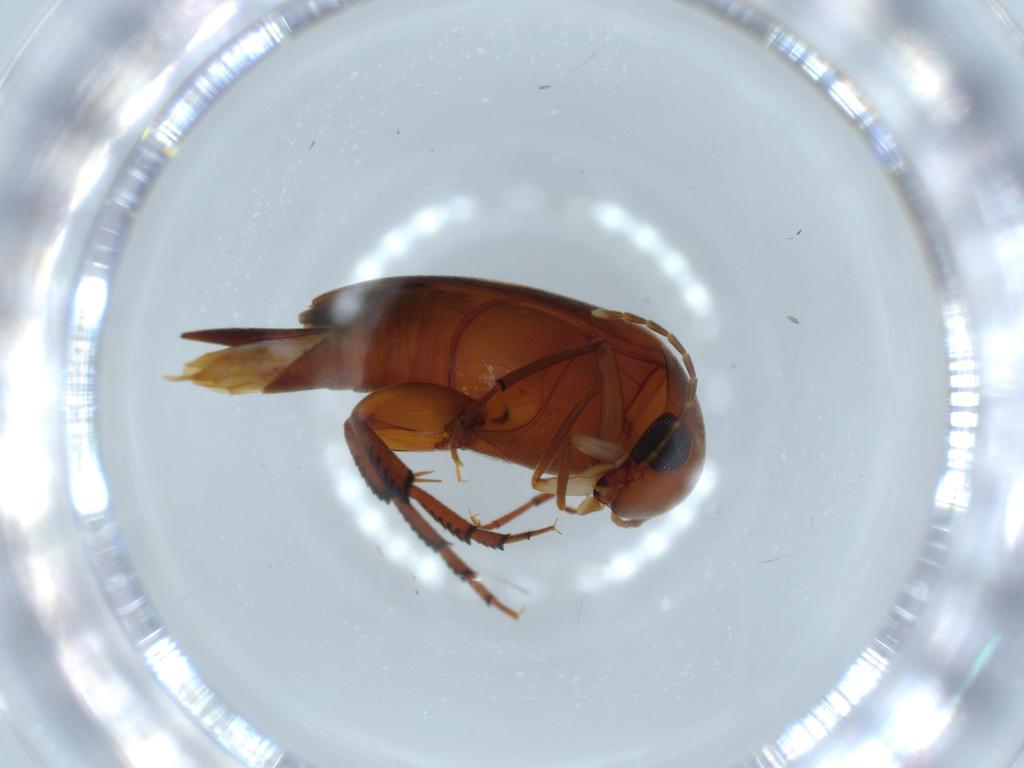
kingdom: Animalia
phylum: Arthropoda
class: Insecta
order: Coleoptera
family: Mordellidae
